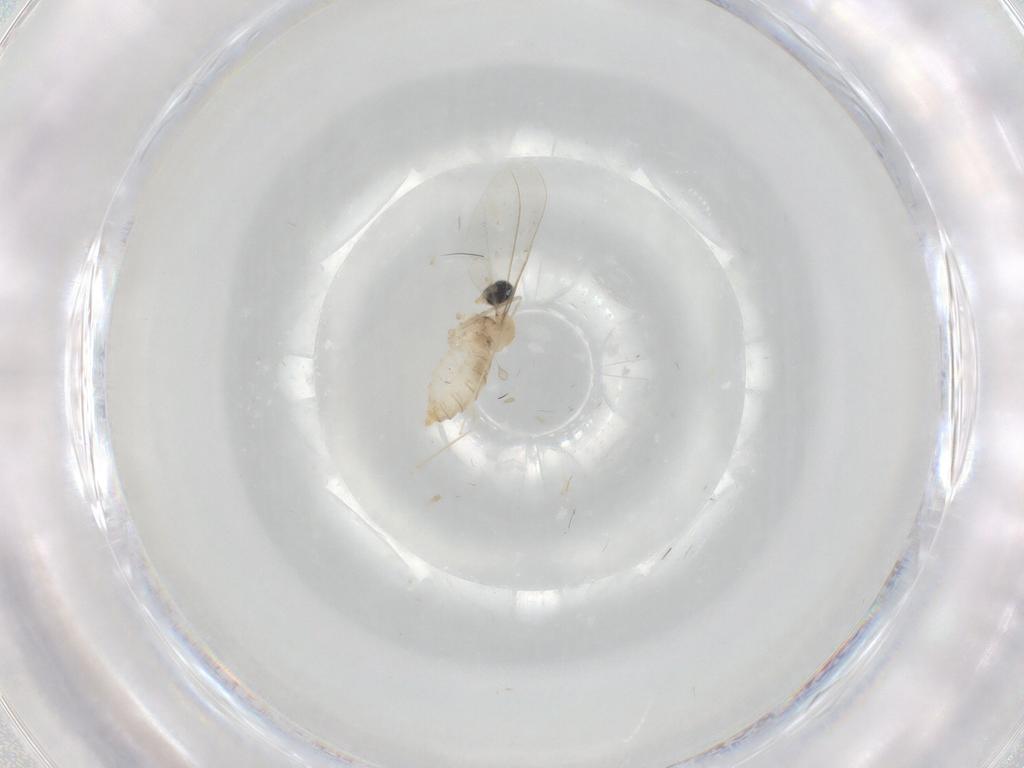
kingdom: Animalia
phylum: Arthropoda
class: Insecta
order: Diptera
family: Cecidomyiidae
